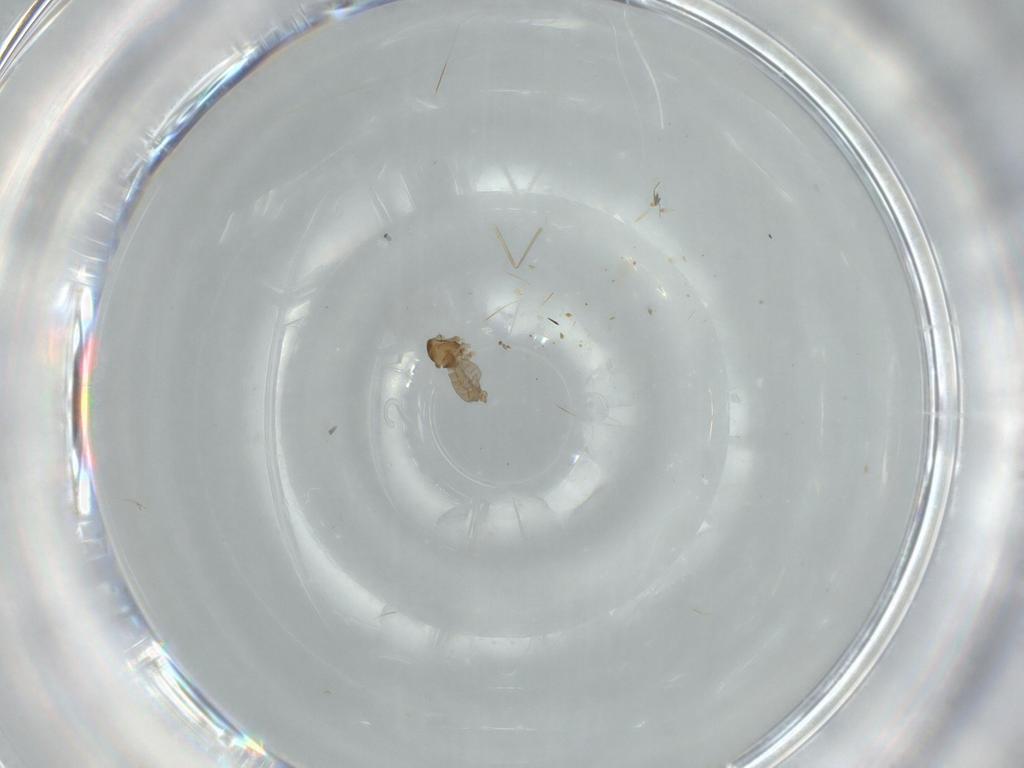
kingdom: Animalia
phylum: Arthropoda
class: Insecta
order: Diptera
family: Cecidomyiidae
